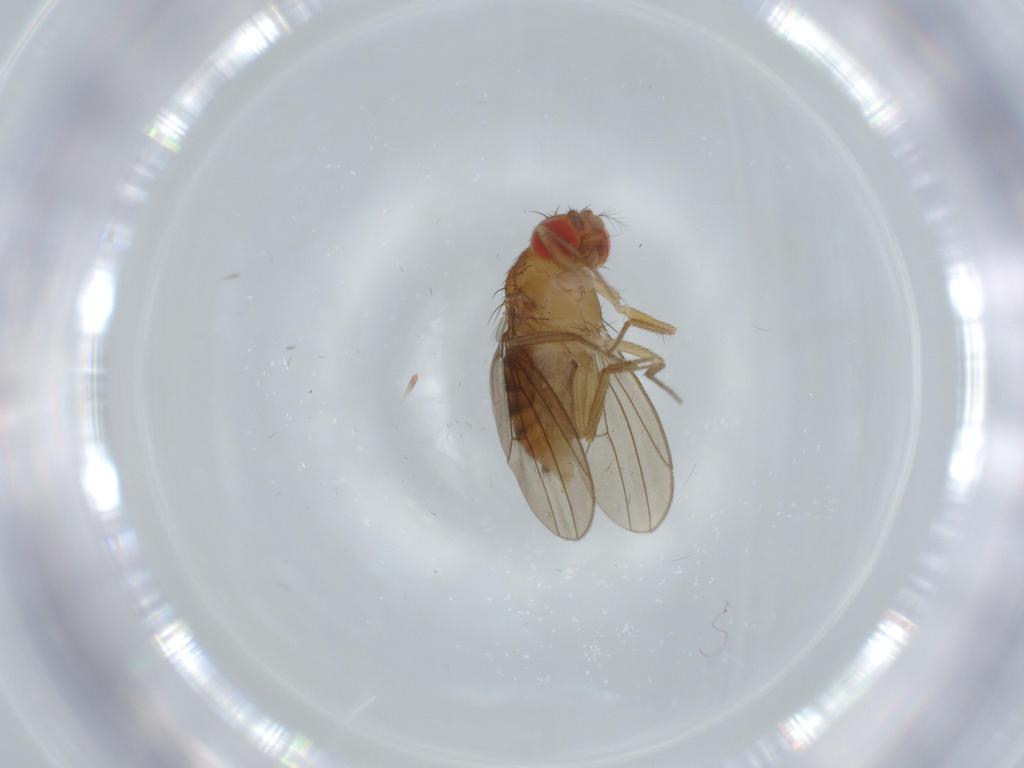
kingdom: Animalia
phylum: Arthropoda
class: Insecta
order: Diptera
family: Drosophilidae
